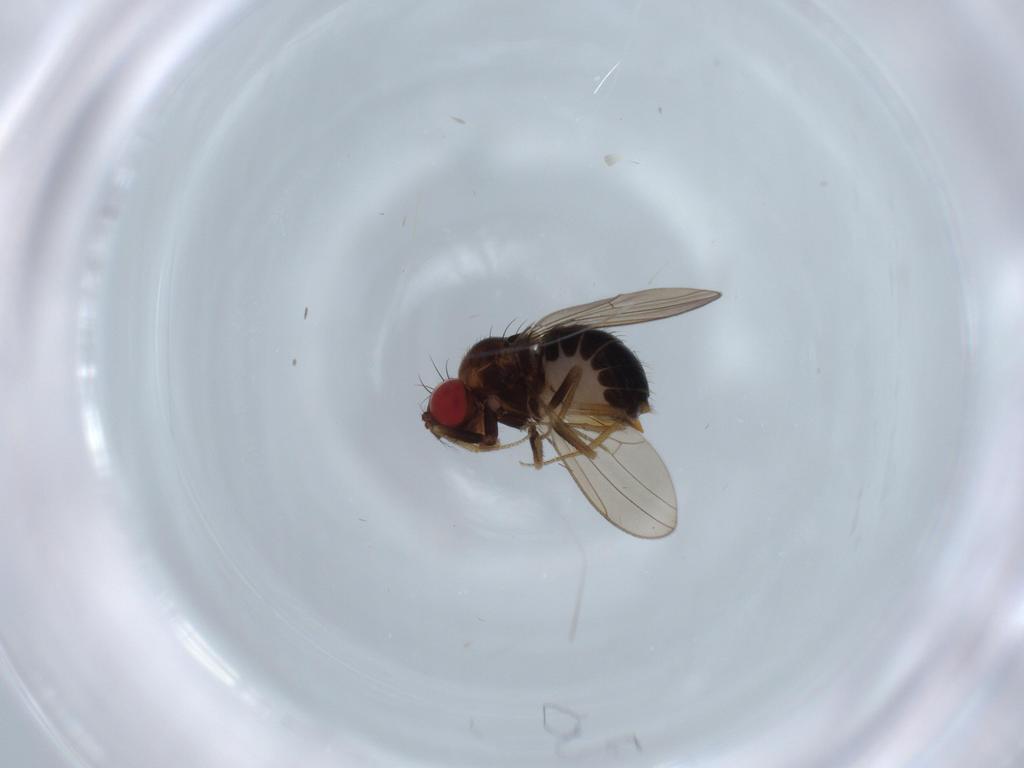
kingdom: Animalia
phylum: Arthropoda
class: Insecta
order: Diptera
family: Drosophilidae
